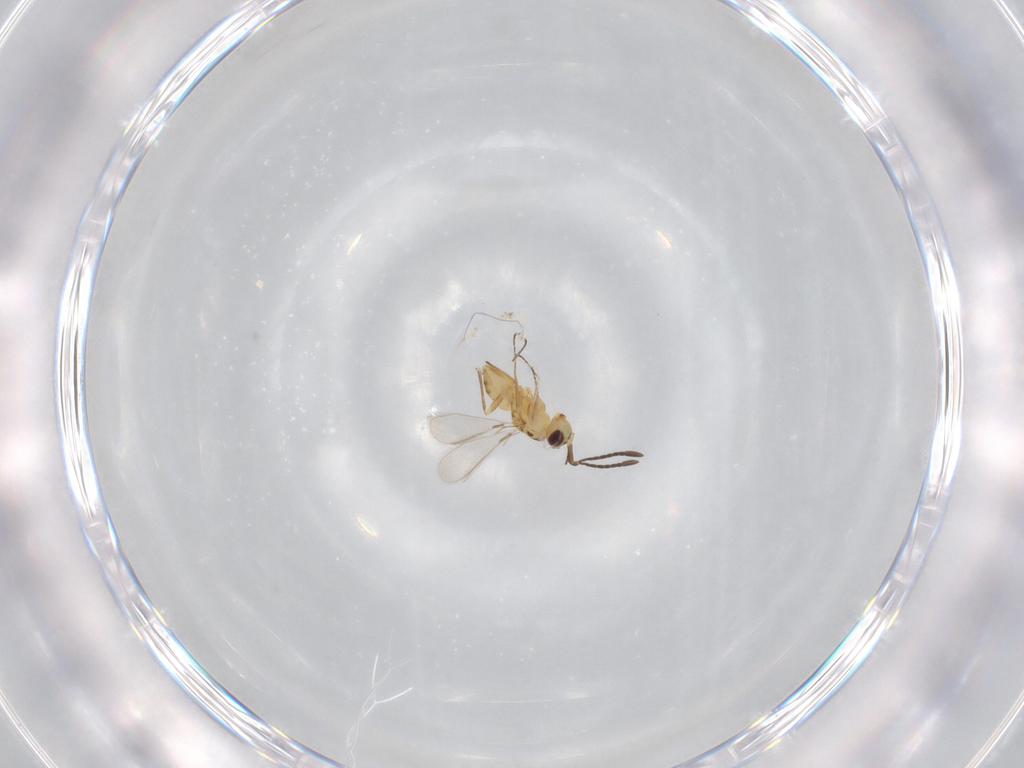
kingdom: Animalia
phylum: Arthropoda
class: Insecta
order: Hymenoptera
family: Mymaridae
